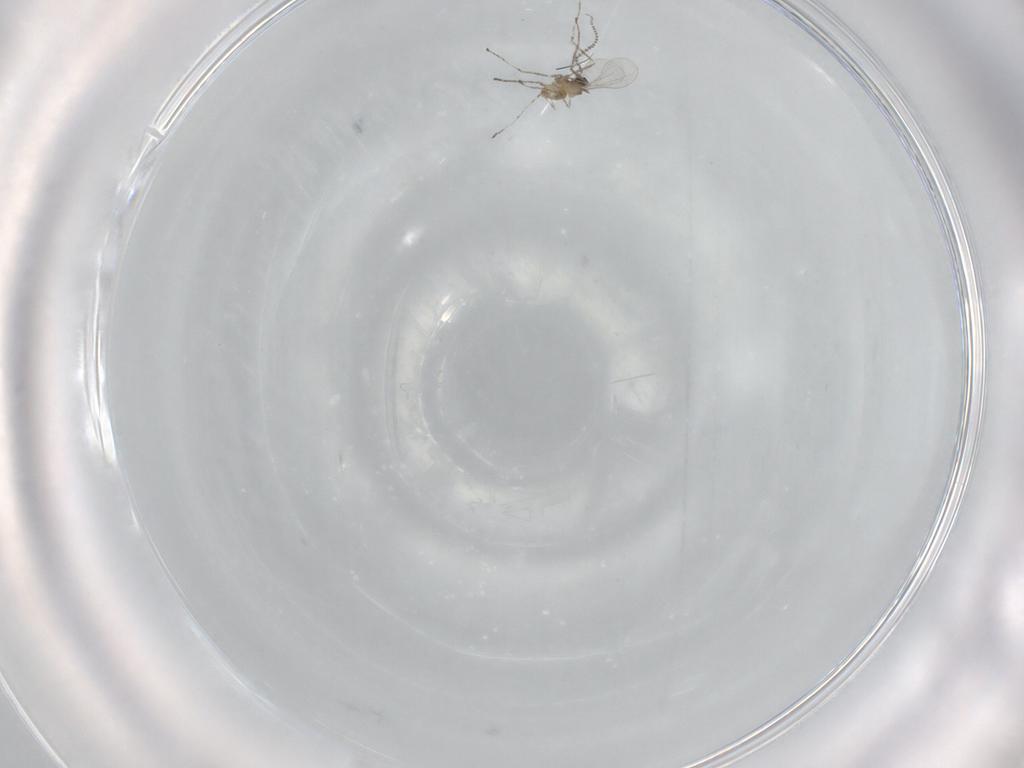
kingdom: Animalia
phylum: Arthropoda
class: Insecta
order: Diptera
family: Cecidomyiidae
